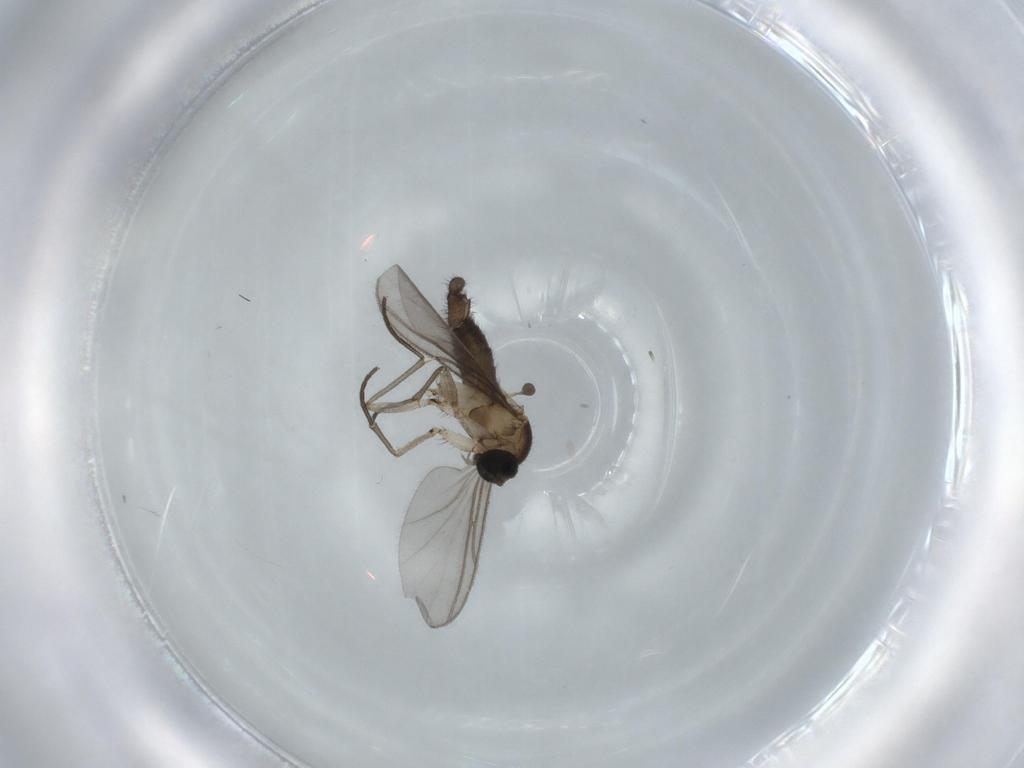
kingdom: Animalia
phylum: Arthropoda
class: Insecta
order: Diptera
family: Sciaridae
